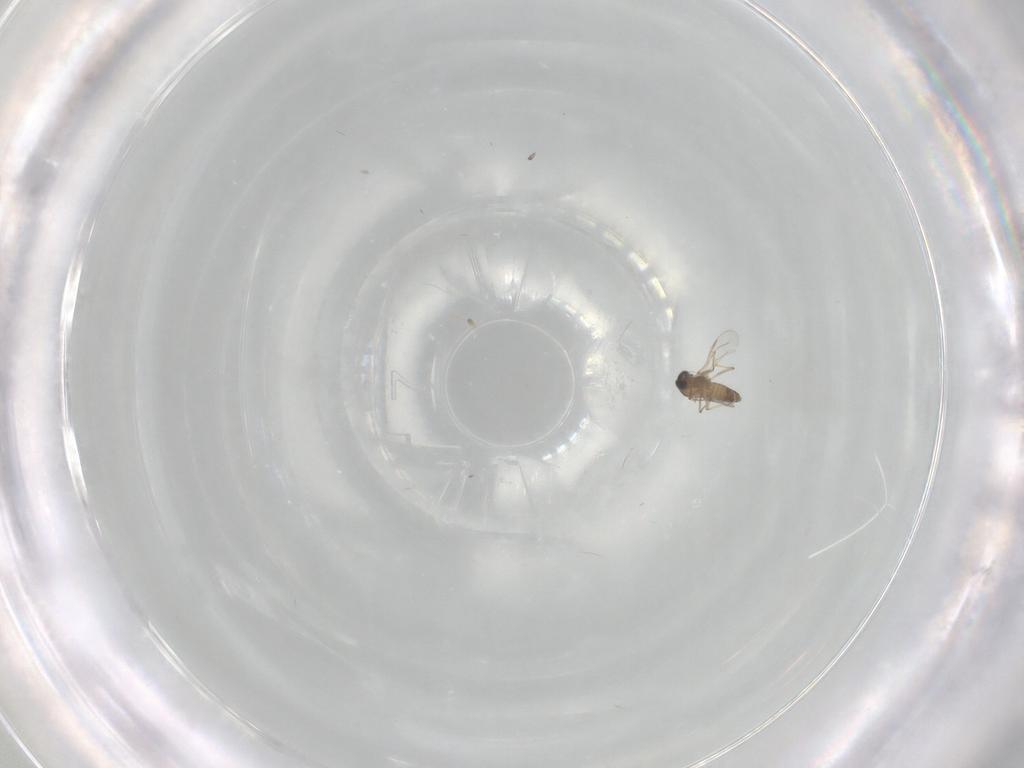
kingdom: Animalia
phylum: Arthropoda
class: Insecta
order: Diptera
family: Chironomidae
